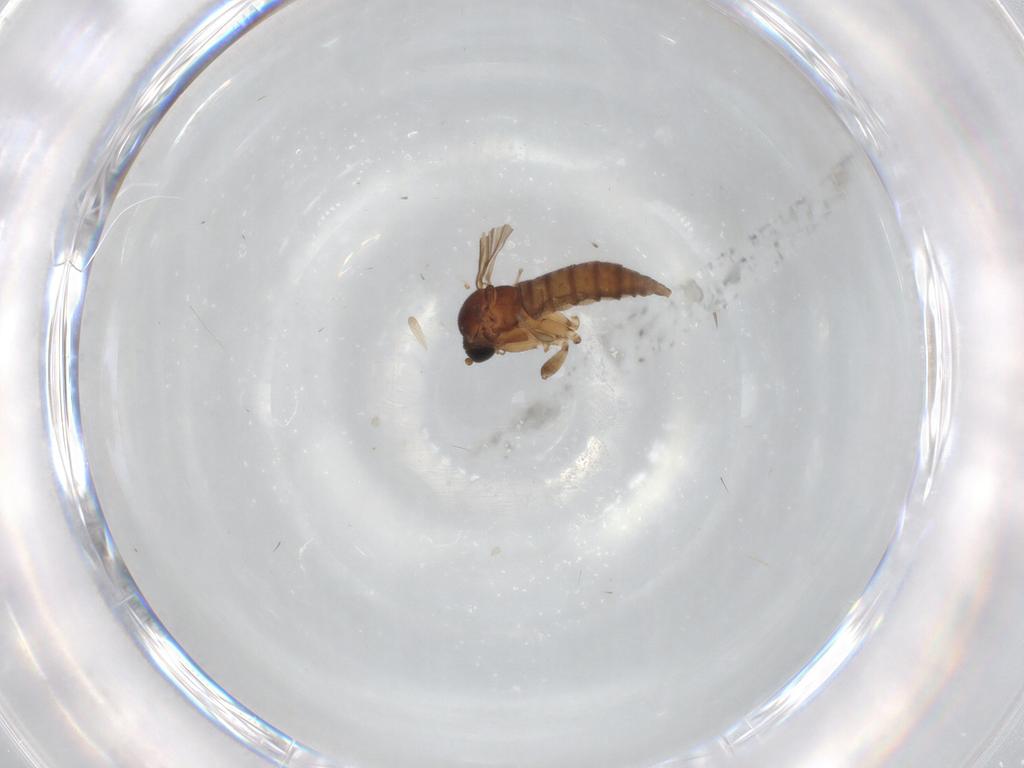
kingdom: Animalia
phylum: Arthropoda
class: Insecta
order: Diptera
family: Sciaridae
